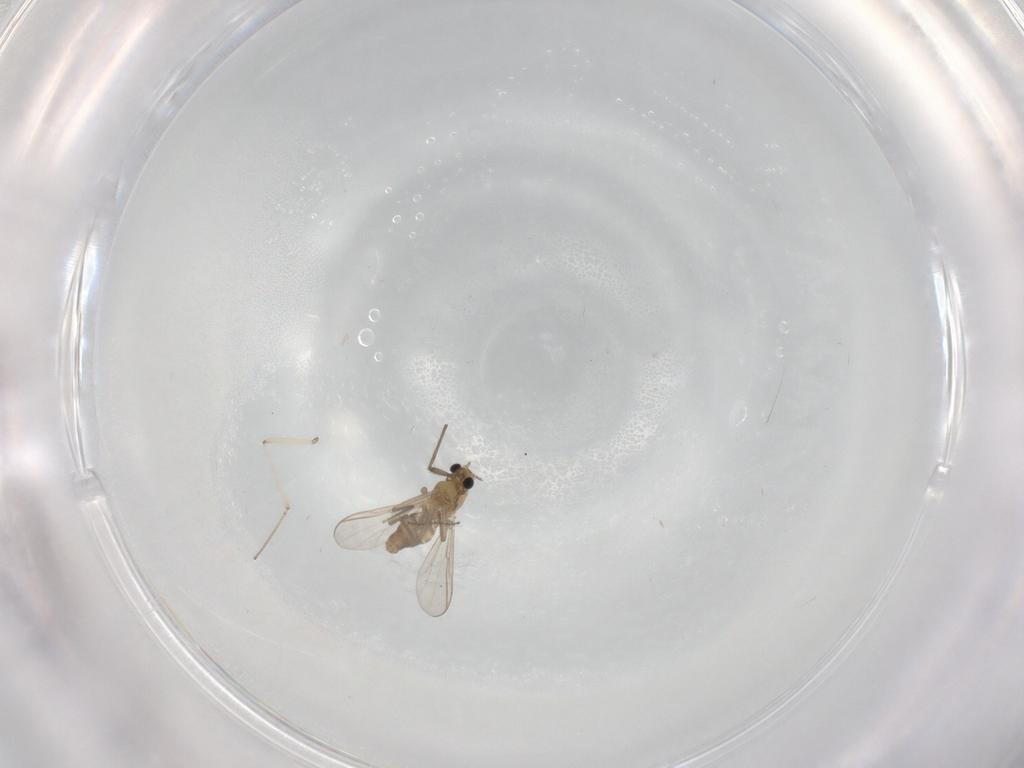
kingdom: Animalia
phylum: Arthropoda
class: Insecta
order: Diptera
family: Chironomidae
